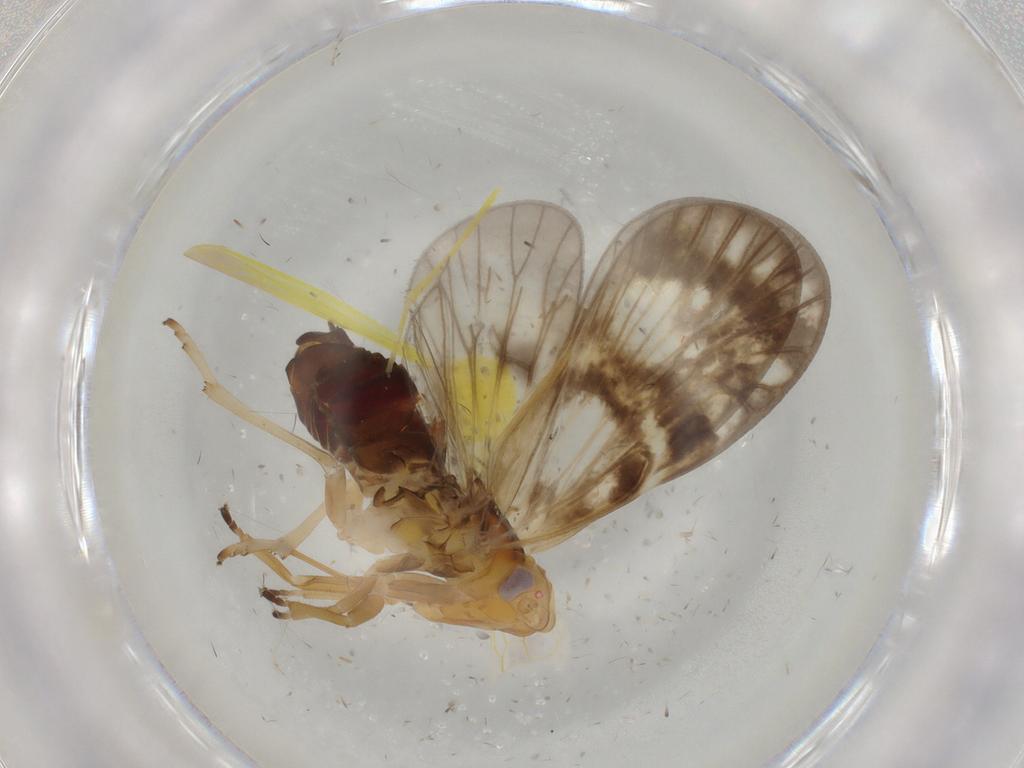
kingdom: Animalia
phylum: Arthropoda
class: Insecta
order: Hemiptera
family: Cixiidae
